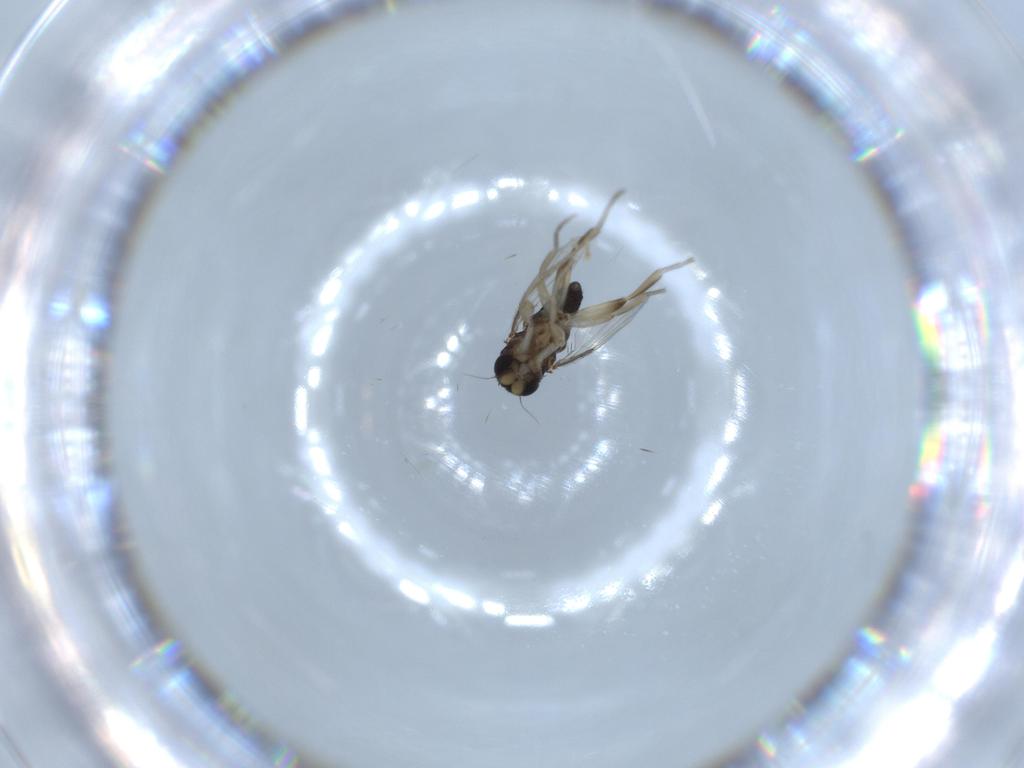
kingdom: Animalia
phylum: Arthropoda
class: Insecta
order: Diptera
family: Phoridae
